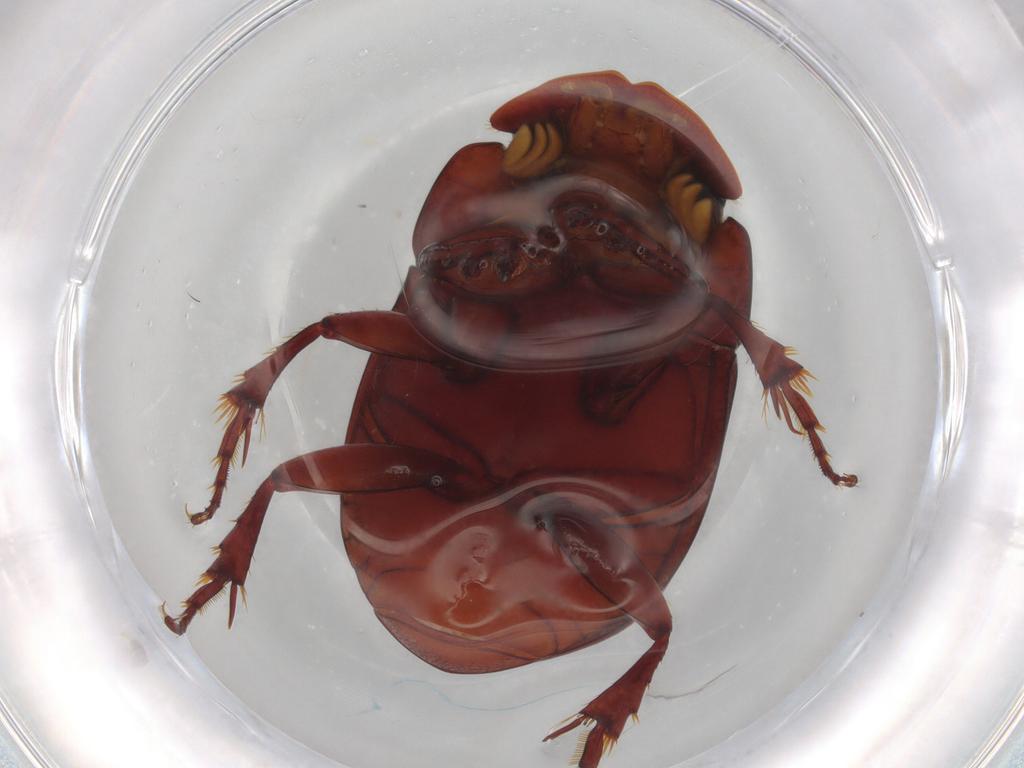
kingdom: Animalia
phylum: Arthropoda
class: Insecta
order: Coleoptera
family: Scarabaeidae
